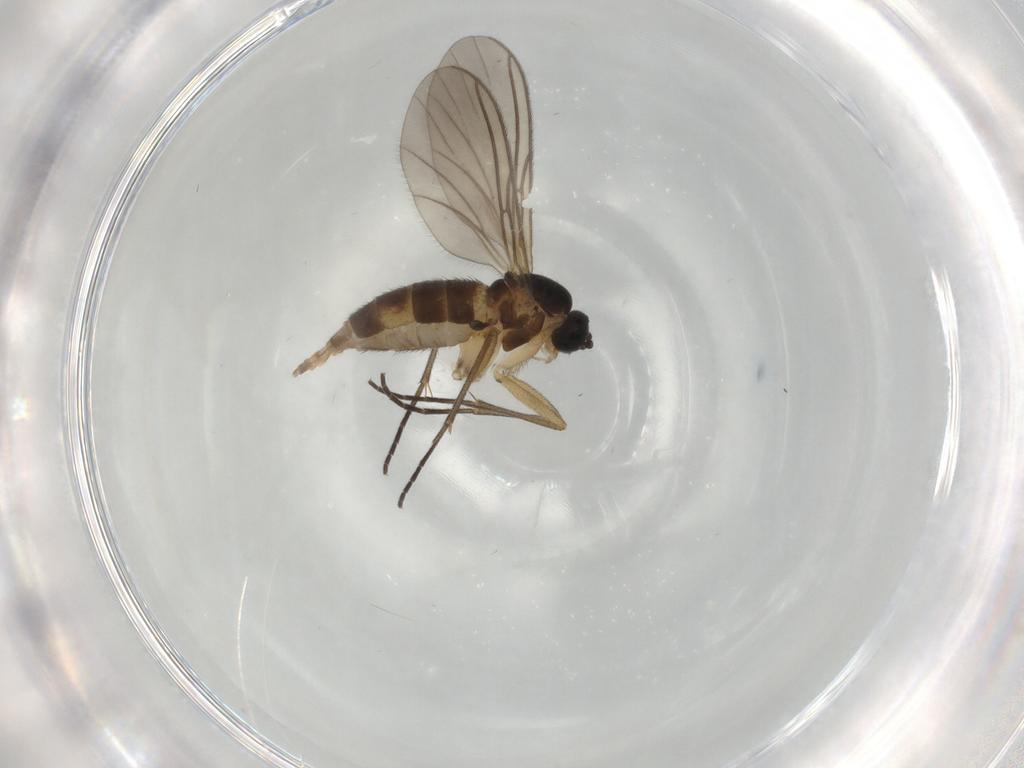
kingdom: Animalia
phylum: Arthropoda
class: Insecta
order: Diptera
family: Sciaridae
